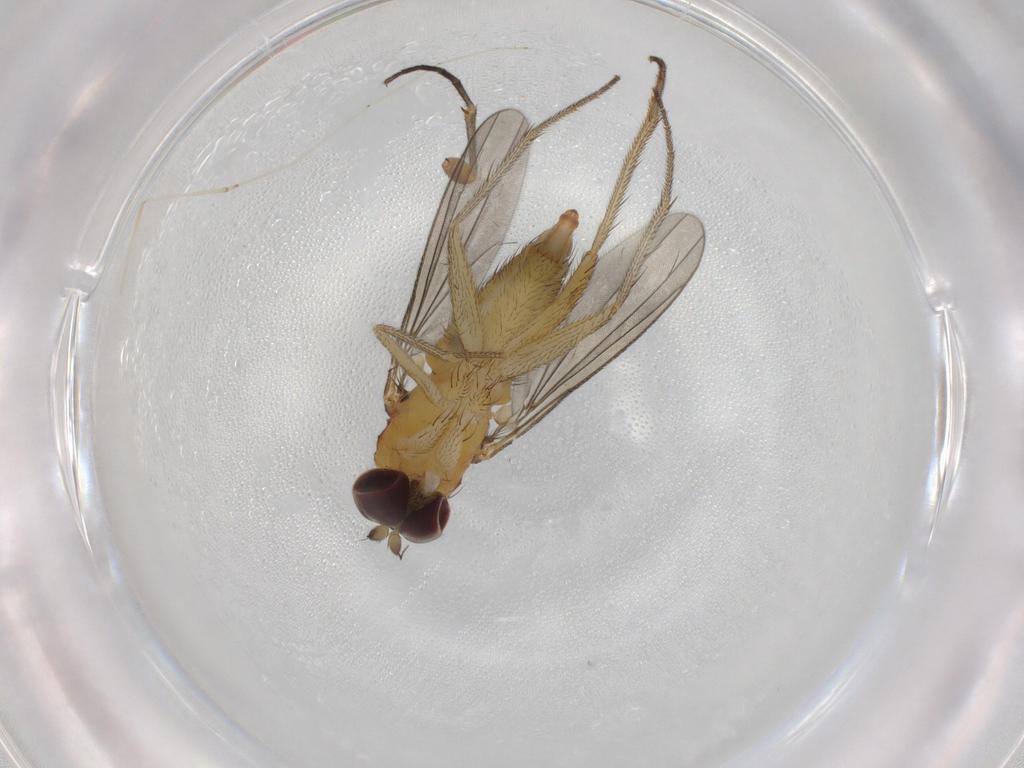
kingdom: Animalia
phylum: Arthropoda
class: Insecta
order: Diptera
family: Dolichopodidae
